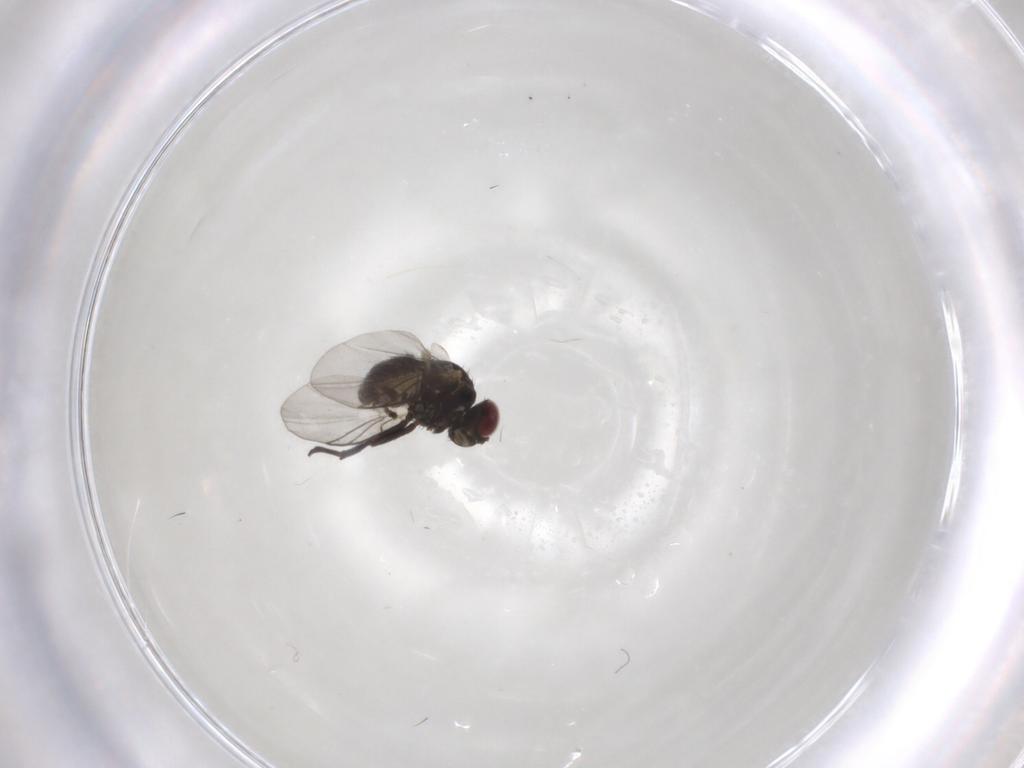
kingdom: Animalia
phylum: Arthropoda
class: Insecta
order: Diptera
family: Agromyzidae
